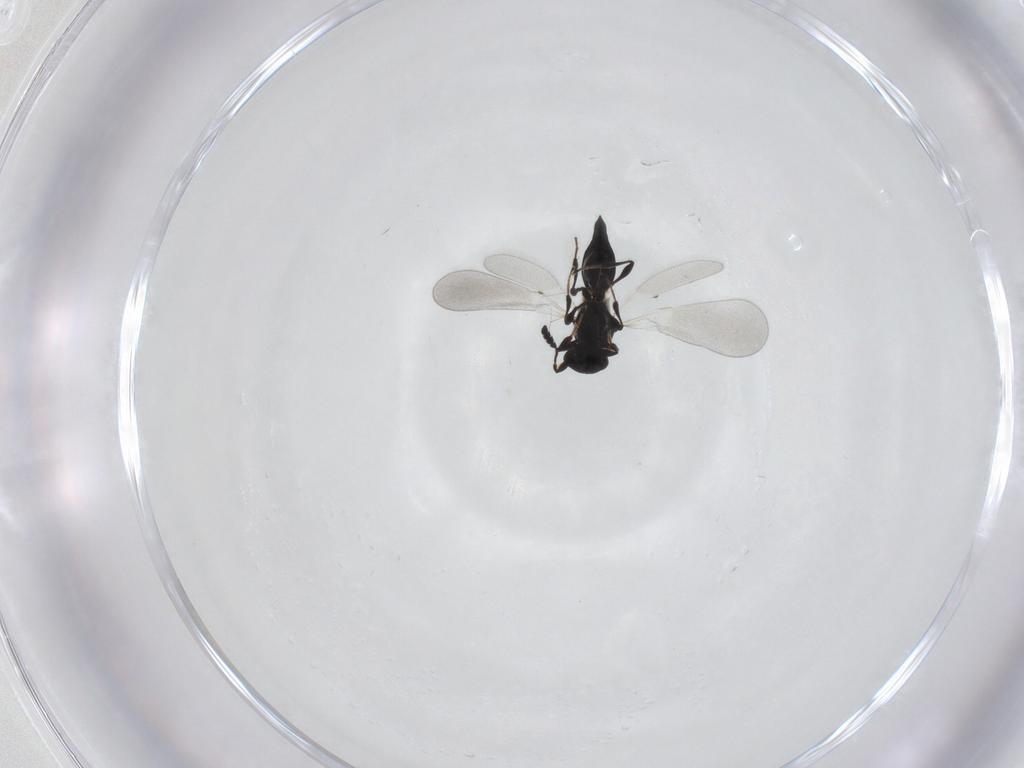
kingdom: Animalia
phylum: Arthropoda
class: Insecta
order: Hymenoptera
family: Platygastridae
